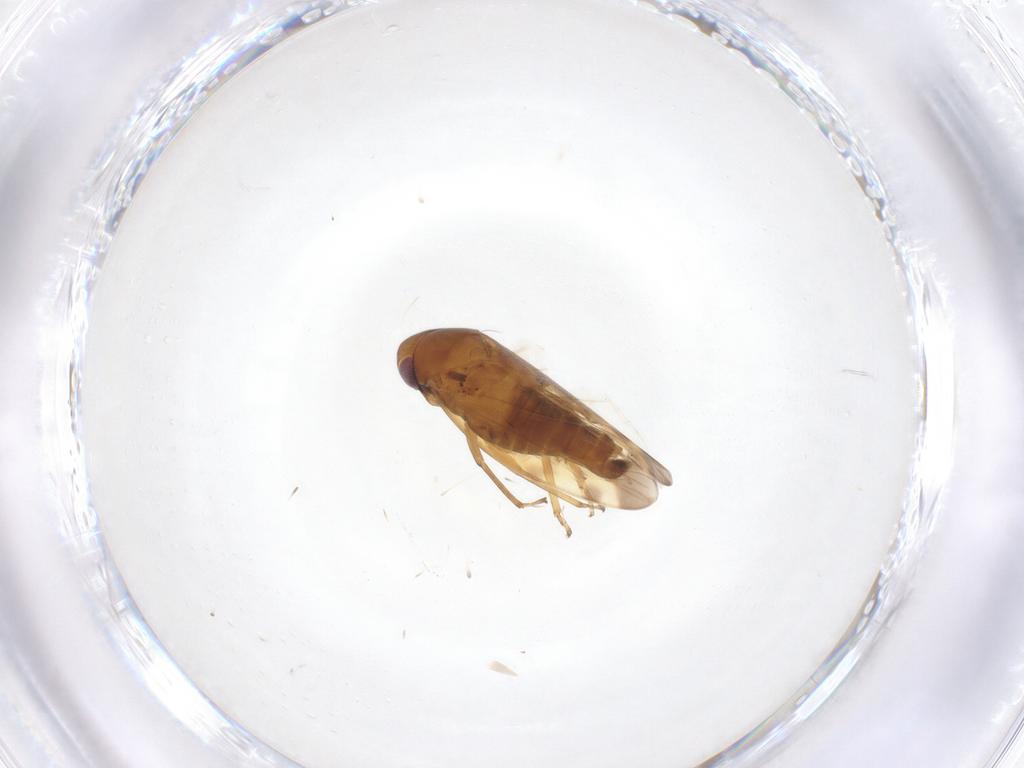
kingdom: Animalia
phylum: Arthropoda
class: Insecta
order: Hemiptera
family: Cicadellidae
